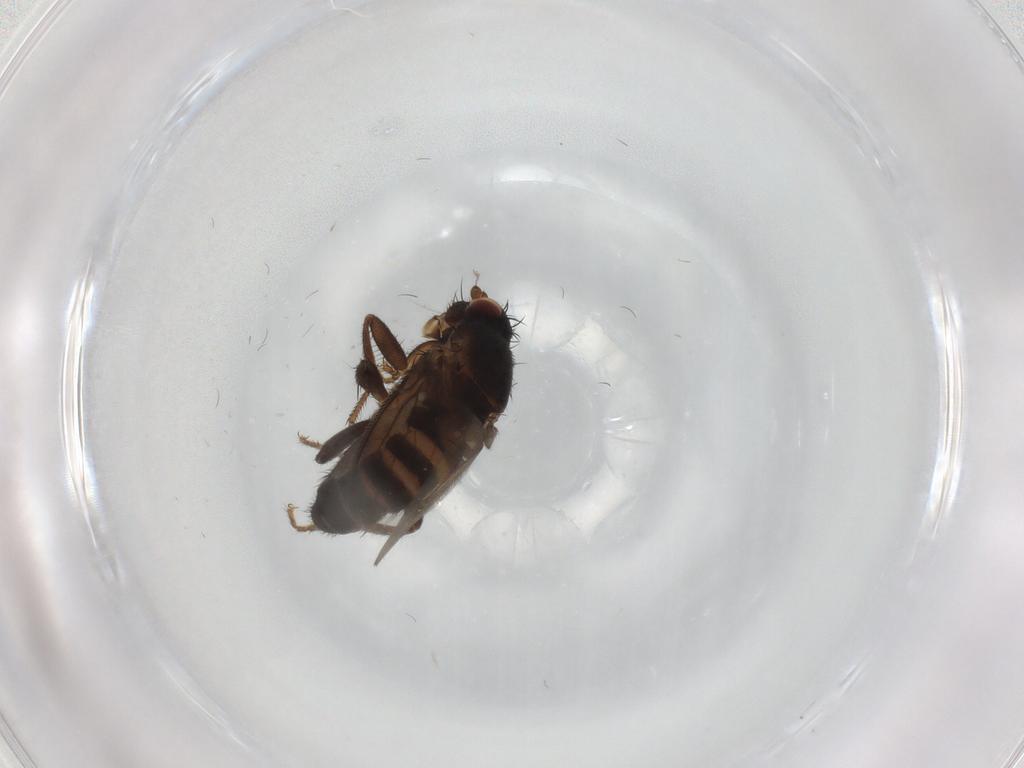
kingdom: Animalia
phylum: Arthropoda
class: Insecta
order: Diptera
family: Sphaeroceridae
